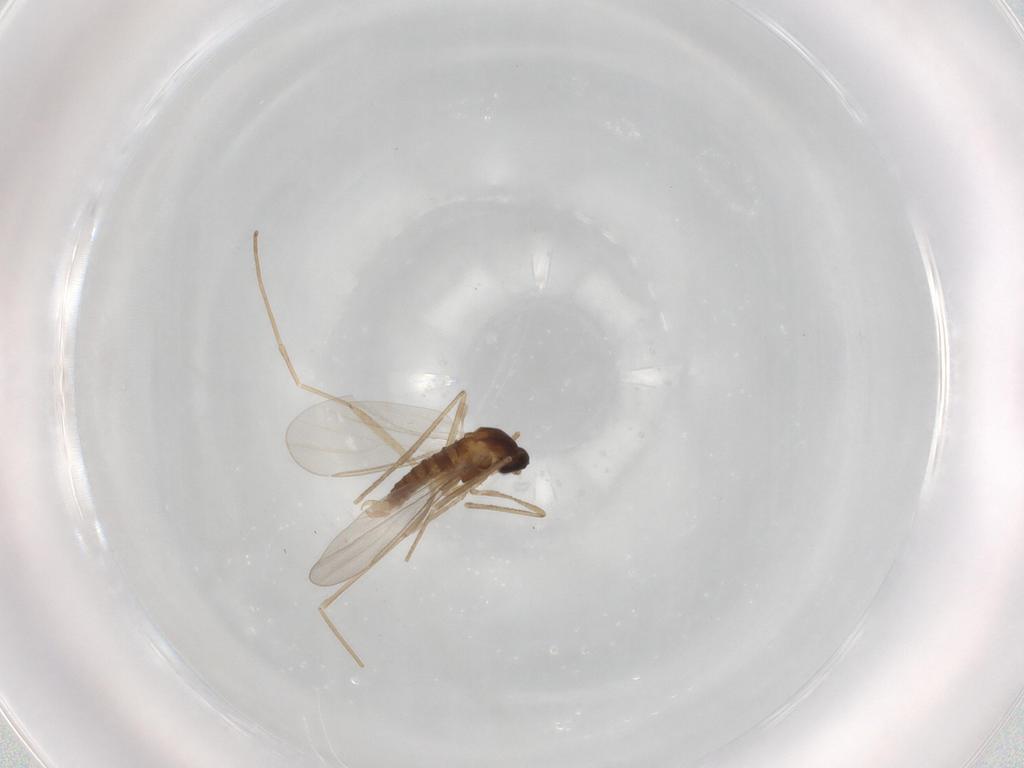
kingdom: Animalia
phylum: Arthropoda
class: Insecta
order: Diptera
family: Cecidomyiidae
